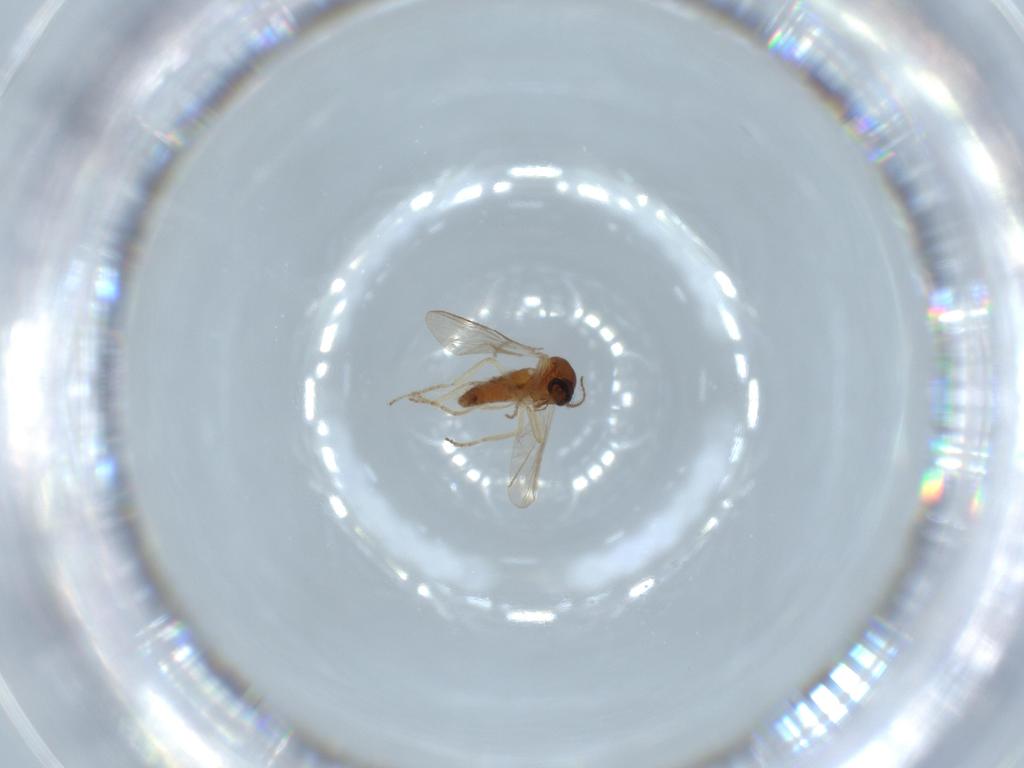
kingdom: Animalia
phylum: Arthropoda
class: Insecta
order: Diptera
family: Ceratopogonidae
